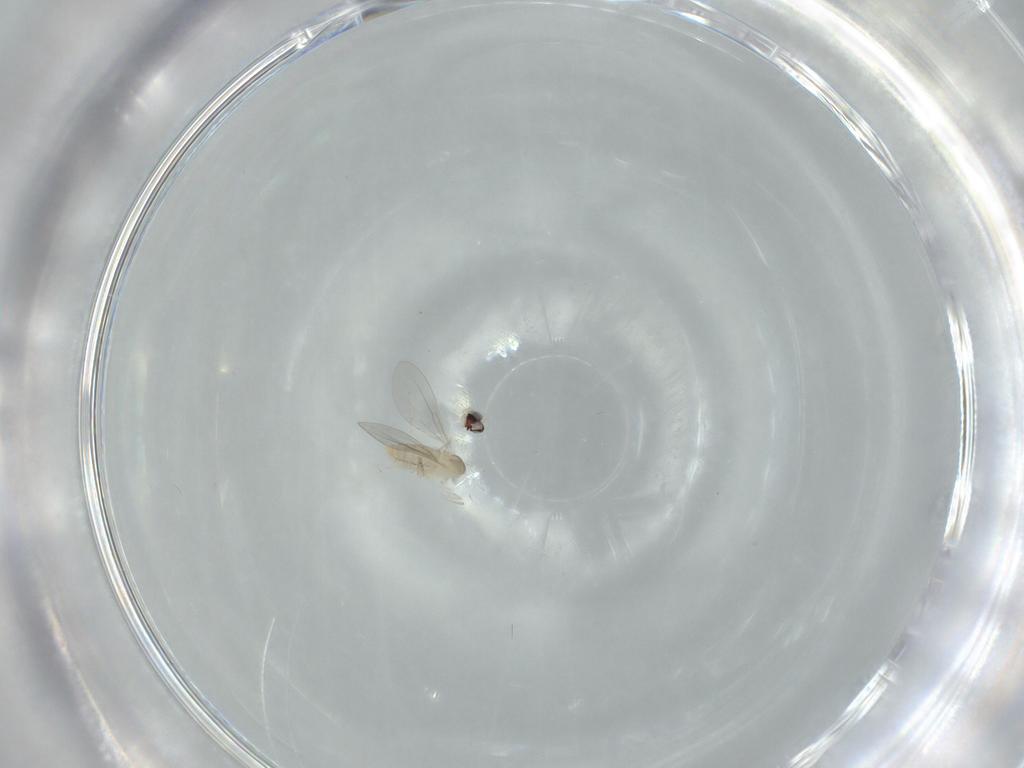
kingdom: Animalia
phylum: Arthropoda
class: Insecta
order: Diptera
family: Cecidomyiidae
